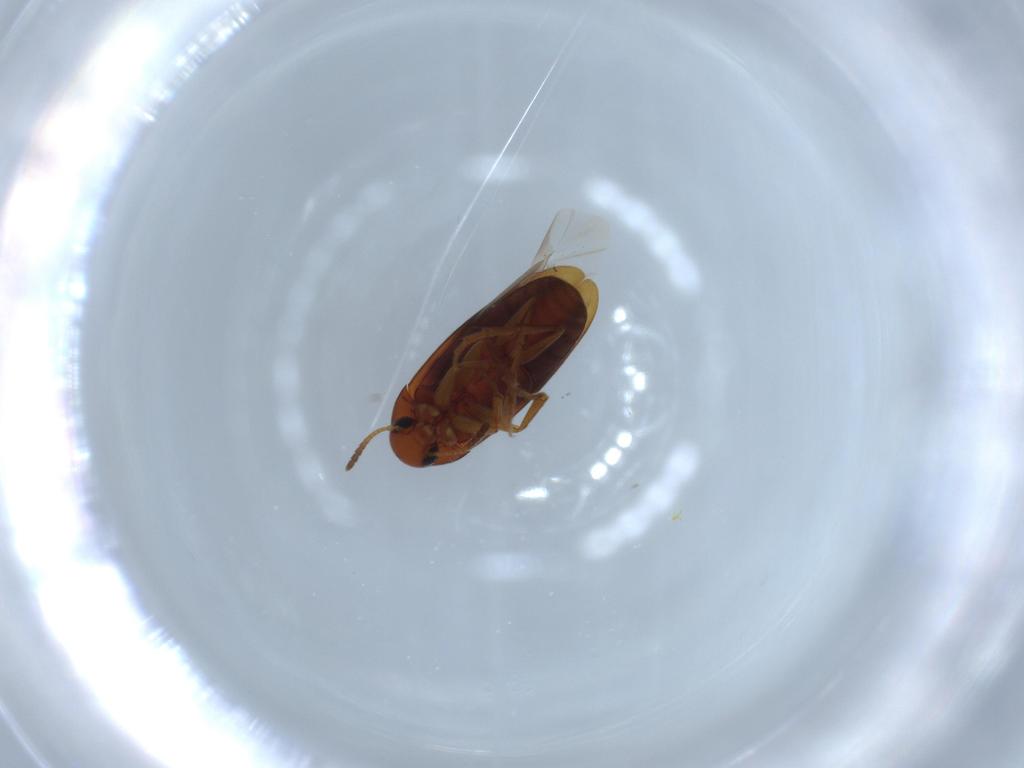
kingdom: Animalia
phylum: Arthropoda
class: Insecta
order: Coleoptera
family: Scraptiidae
